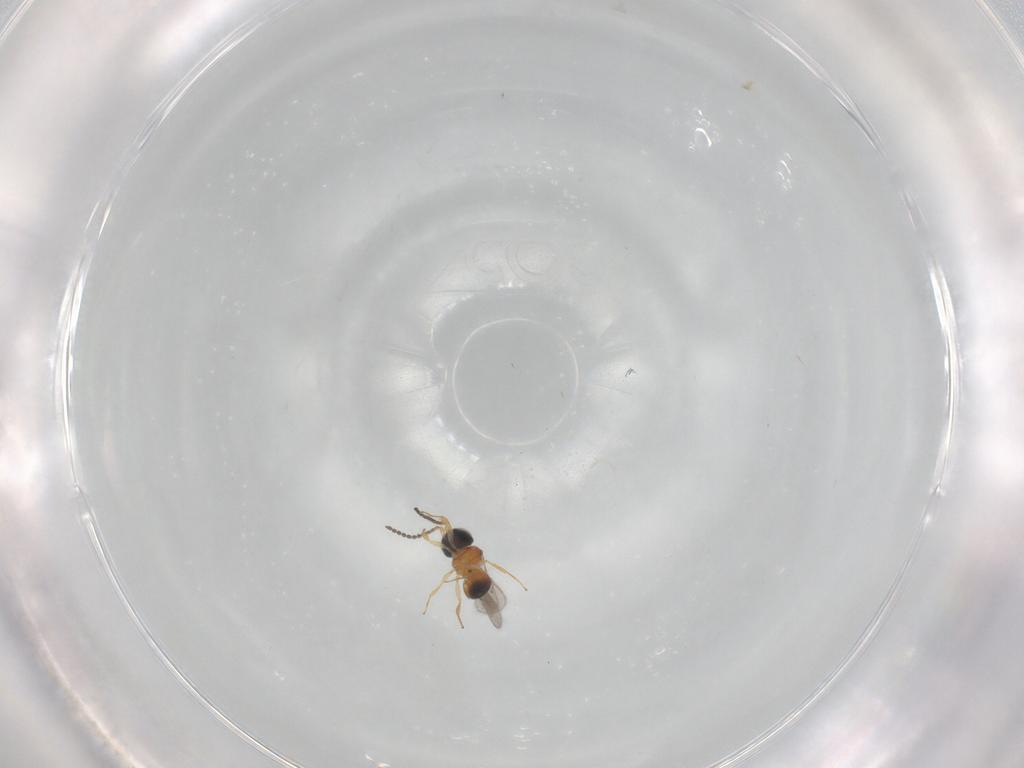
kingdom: Animalia
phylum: Arthropoda
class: Insecta
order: Hymenoptera
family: Scelionidae
